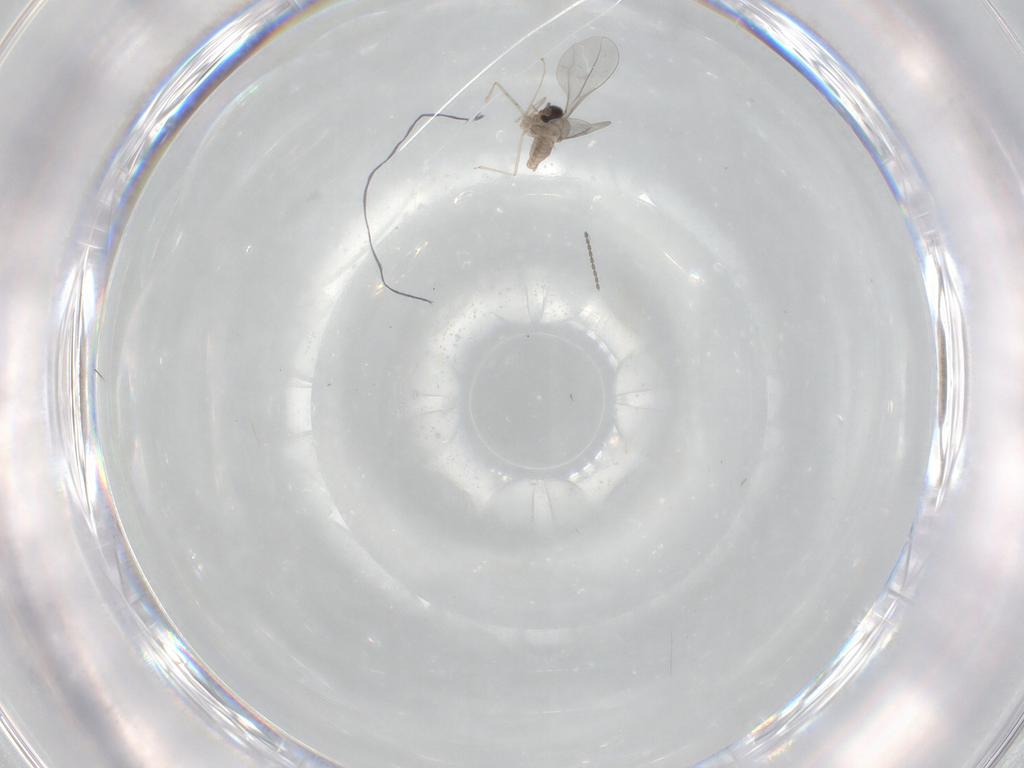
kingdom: Animalia
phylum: Arthropoda
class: Insecta
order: Diptera
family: Cecidomyiidae
